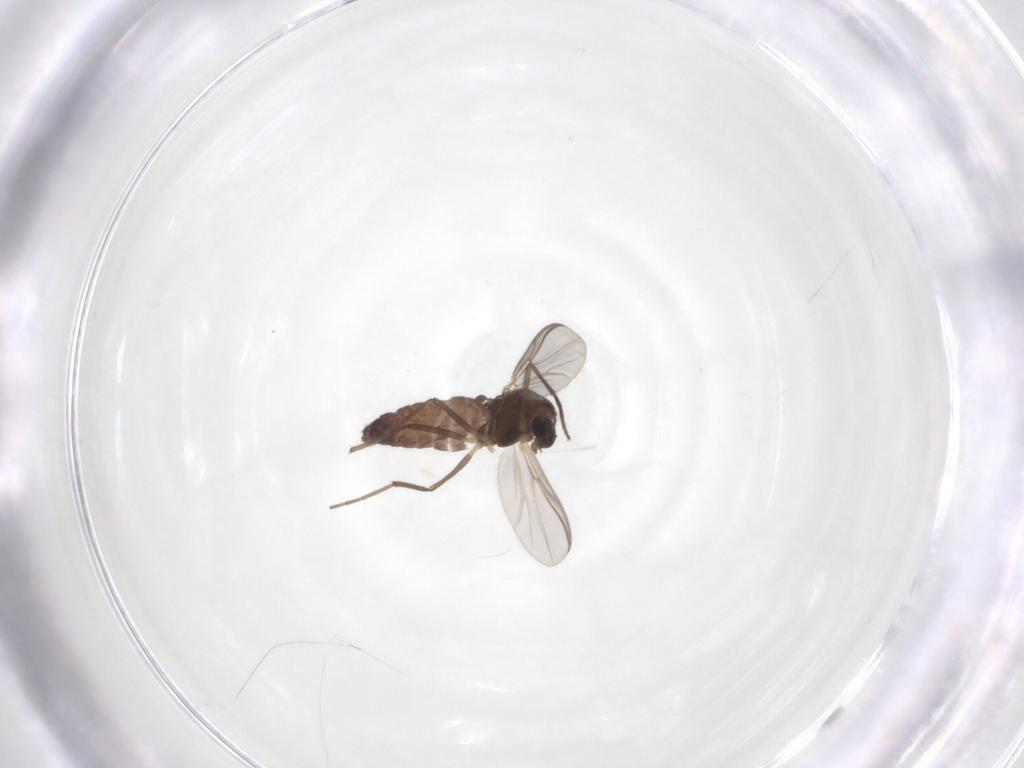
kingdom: Animalia
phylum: Arthropoda
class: Insecta
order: Diptera
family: Chironomidae
